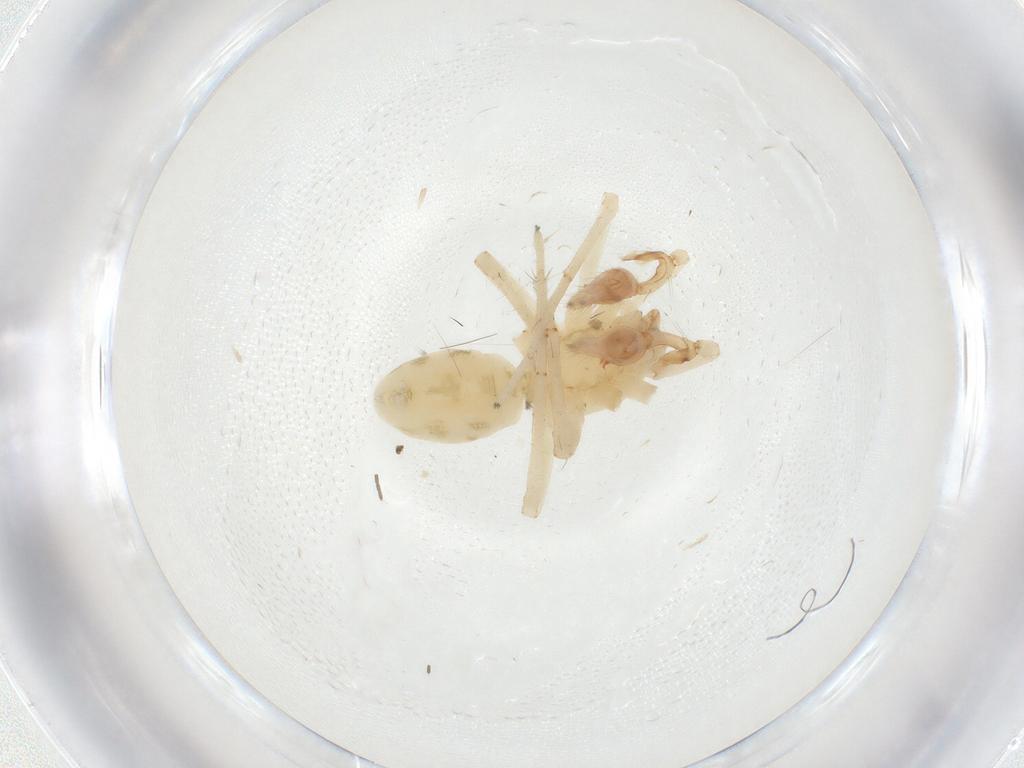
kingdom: Animalia
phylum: Arthropoda
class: Arachnida
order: Araneae
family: Anyphaenidae
